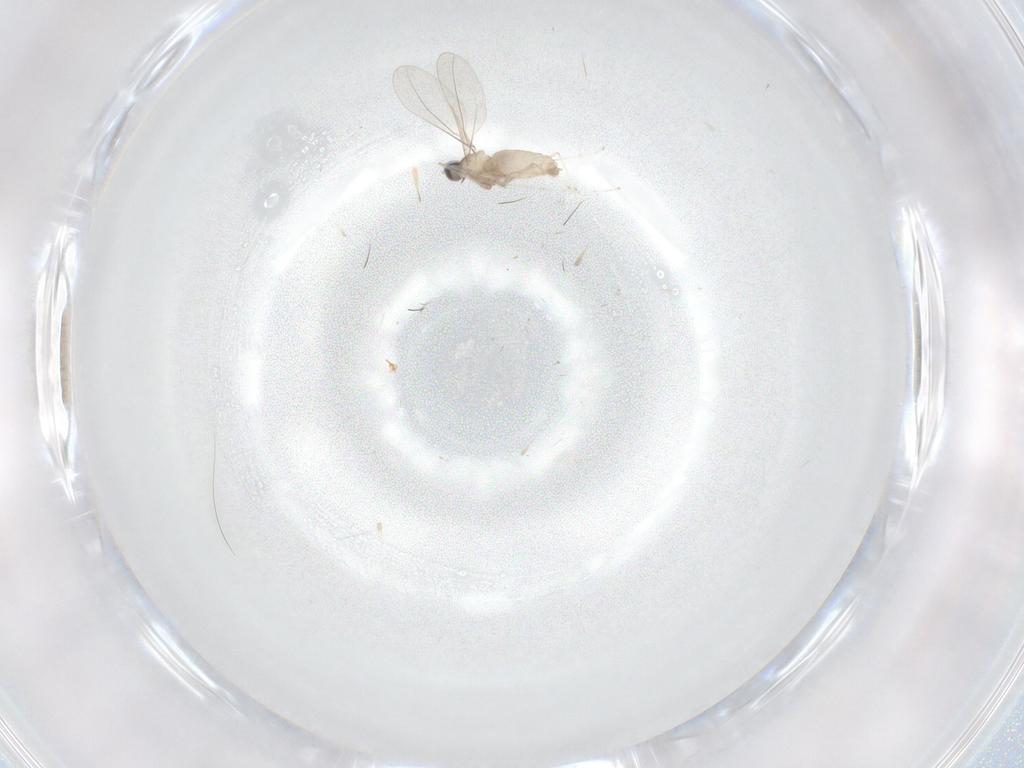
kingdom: Animalia
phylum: Arthropoda
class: Insecta
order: Diptera
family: Cecidomyiidae
